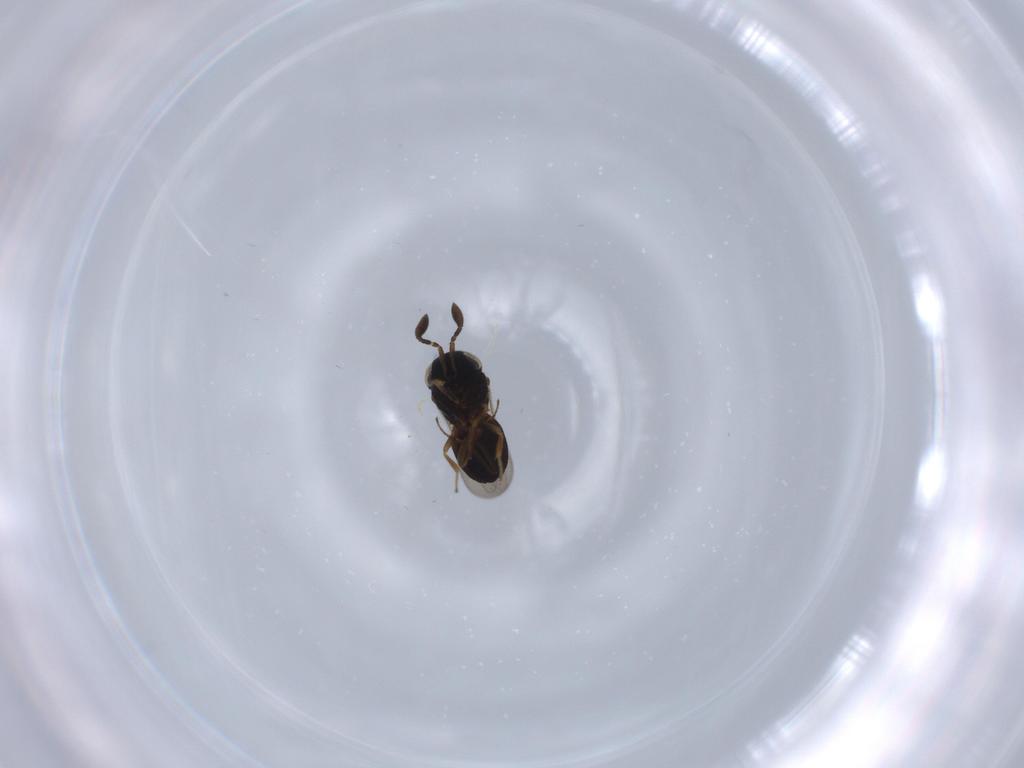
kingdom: Animalia
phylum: Arthropoda
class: Insecta
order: Coleoptera
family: Curculionidae
